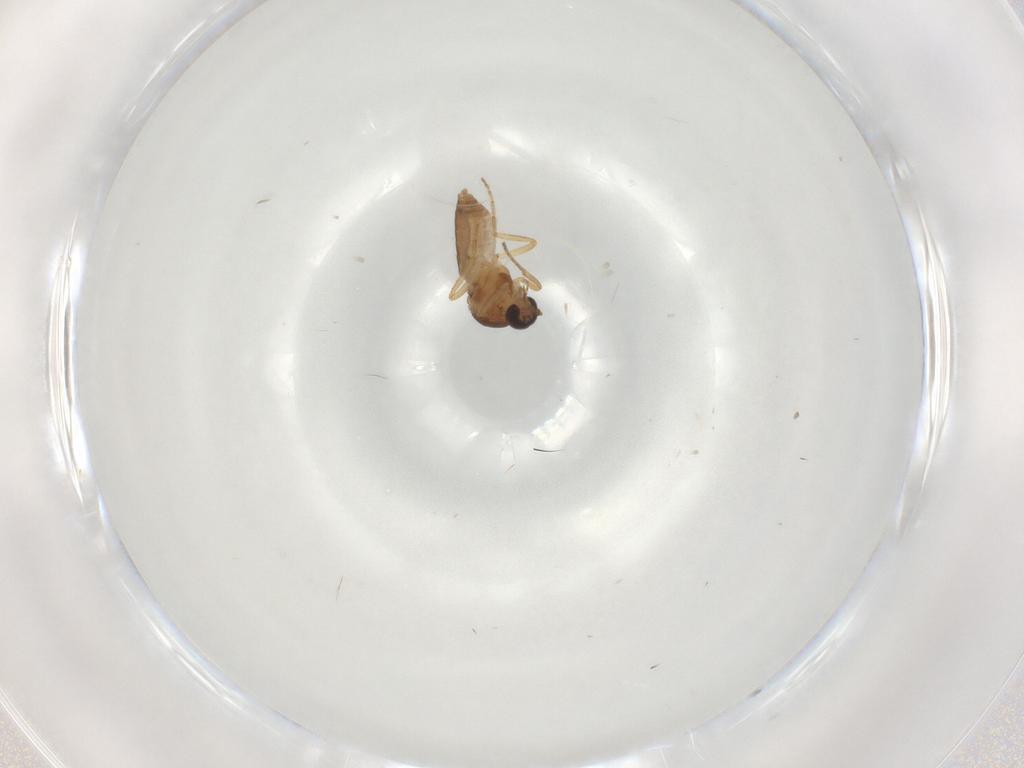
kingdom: Animalia
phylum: Arthropoda
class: Insecta
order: Diptera
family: Ceratopogonidae
